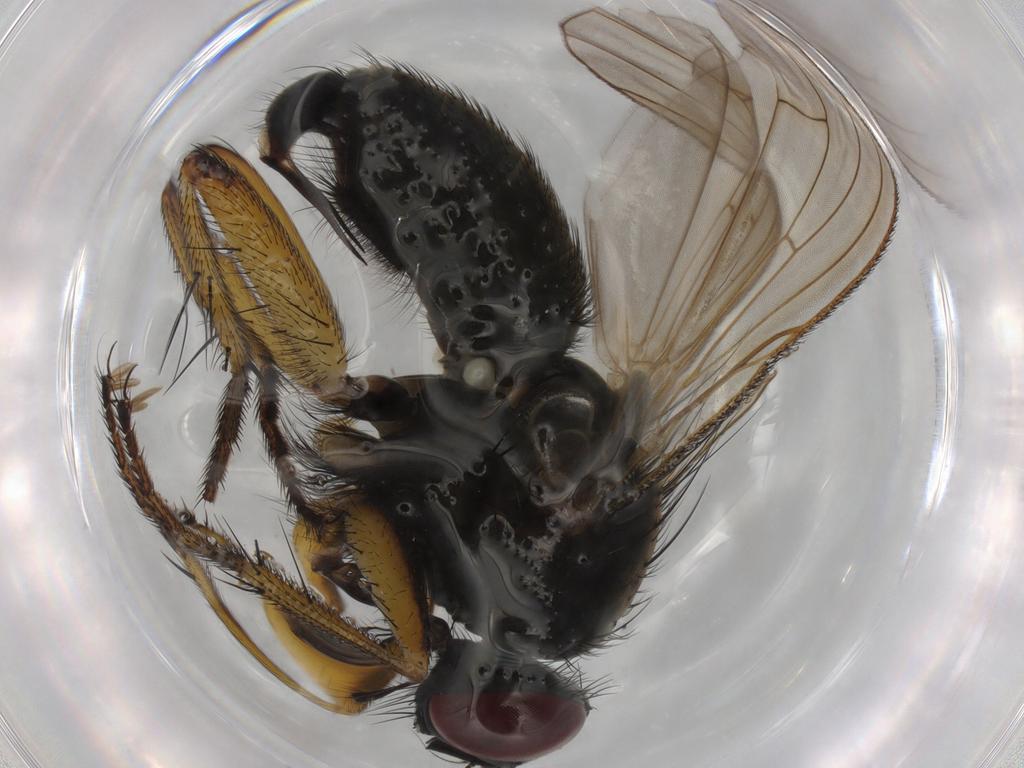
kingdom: Animalia
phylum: Arthropoda
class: Insecta
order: Diptera
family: Muscidae
